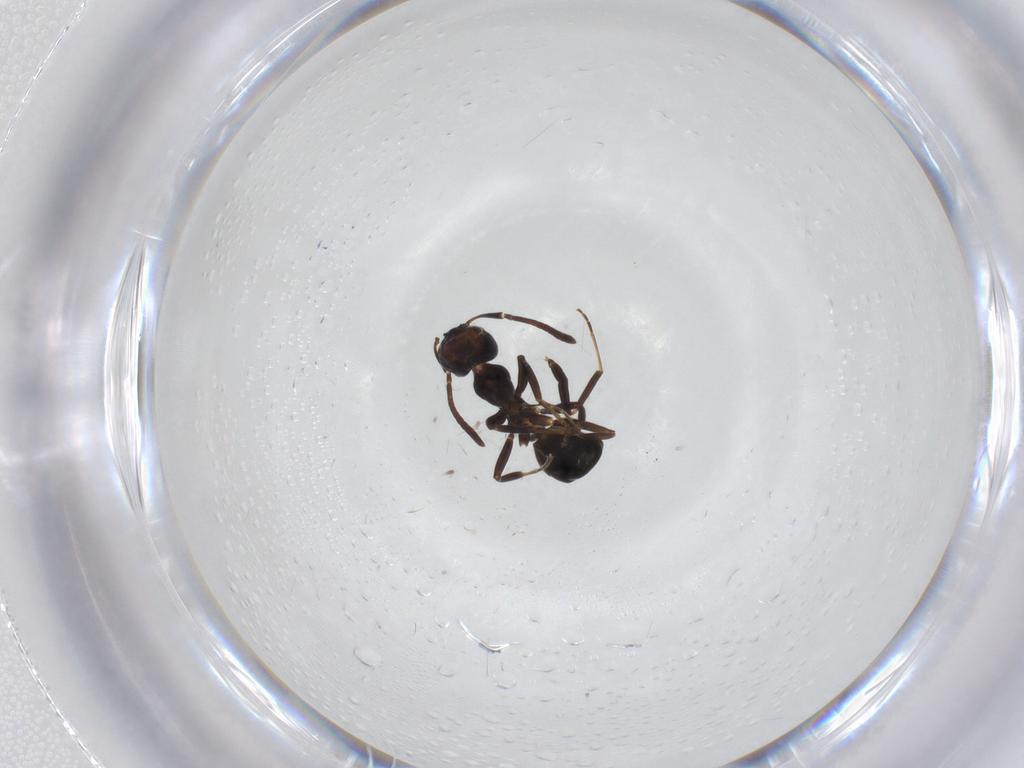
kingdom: Animalia
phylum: Arthropoda
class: Insecta
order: Hymenoptera
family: Formicidae
